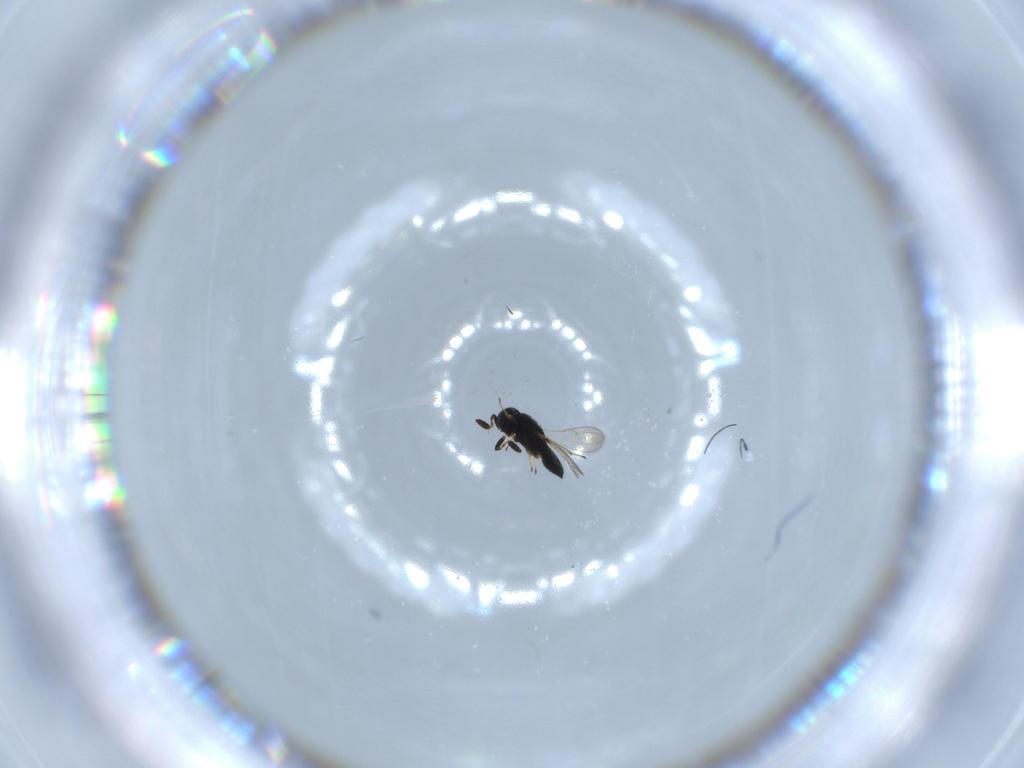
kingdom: Animalia
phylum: Arthropoda
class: Insecta
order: Hymenoptera
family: Scelionidae
